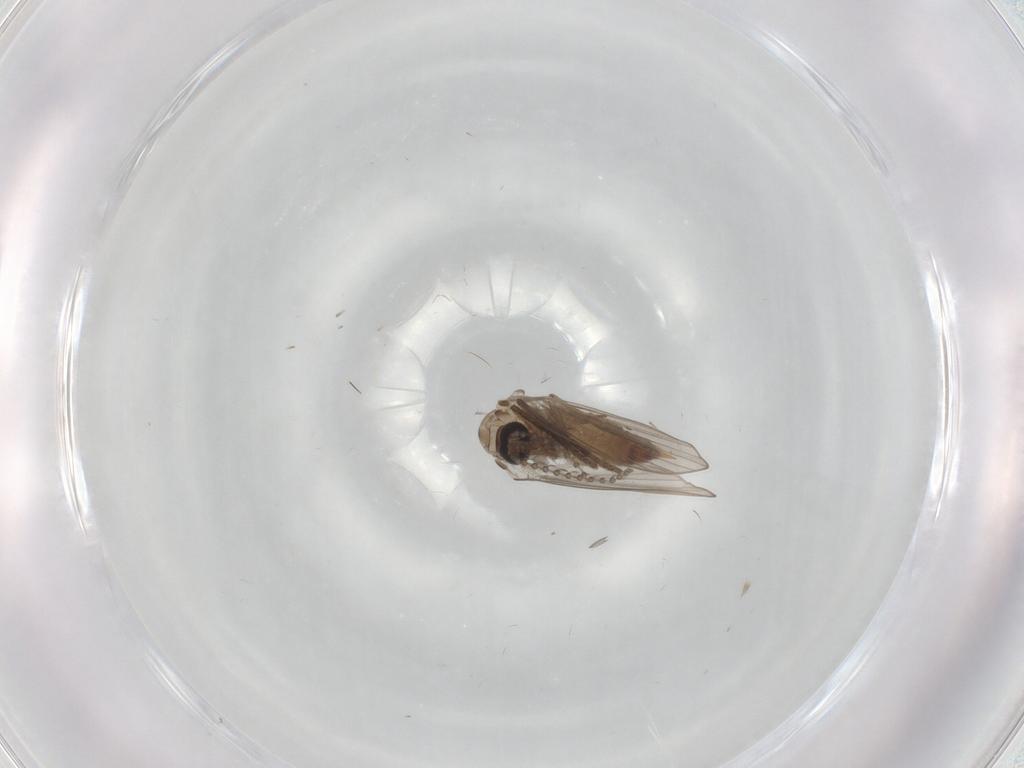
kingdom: Animalia
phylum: Arthropoda
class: Insecta
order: Diptera
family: Psychodidae
